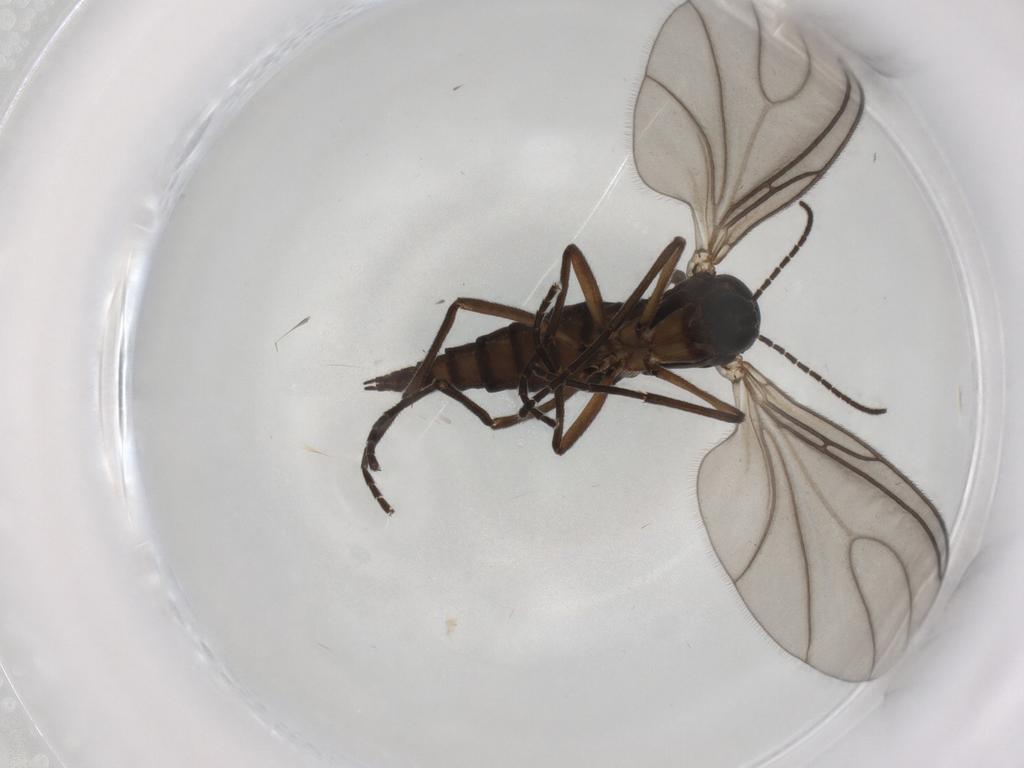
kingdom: Animalia
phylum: Arthropoda
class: Insecta
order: Diptera
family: Sciaridae
